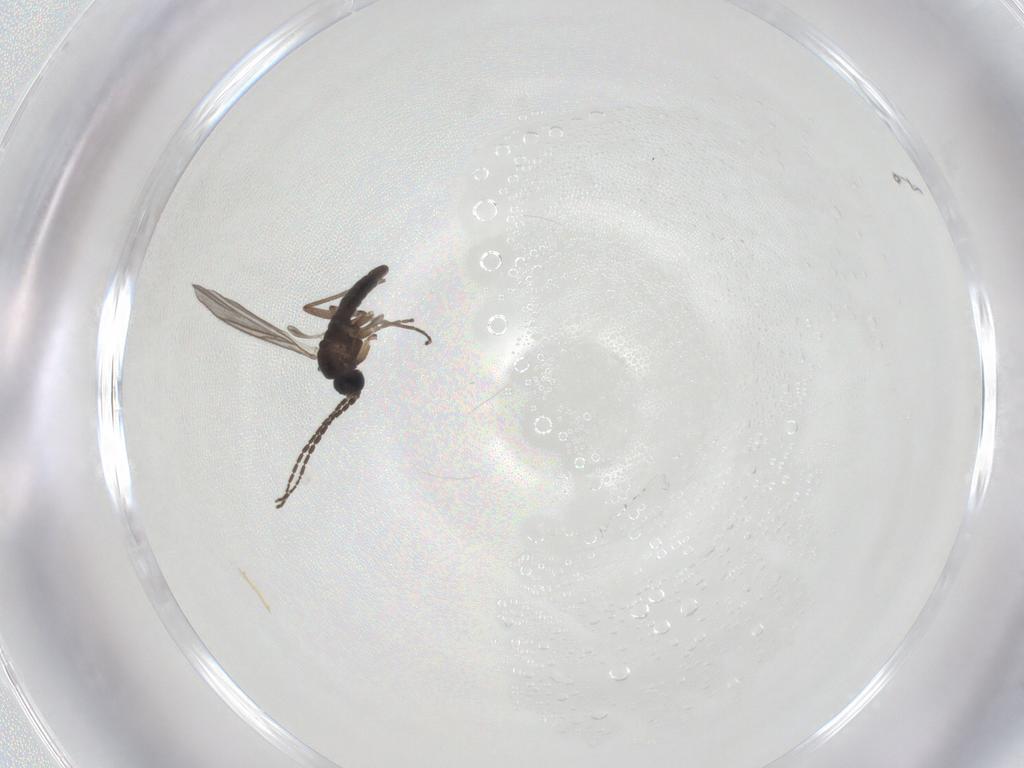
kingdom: Animalia
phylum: Arthropoda
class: Insecta
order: Diptera
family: Sciaridae
